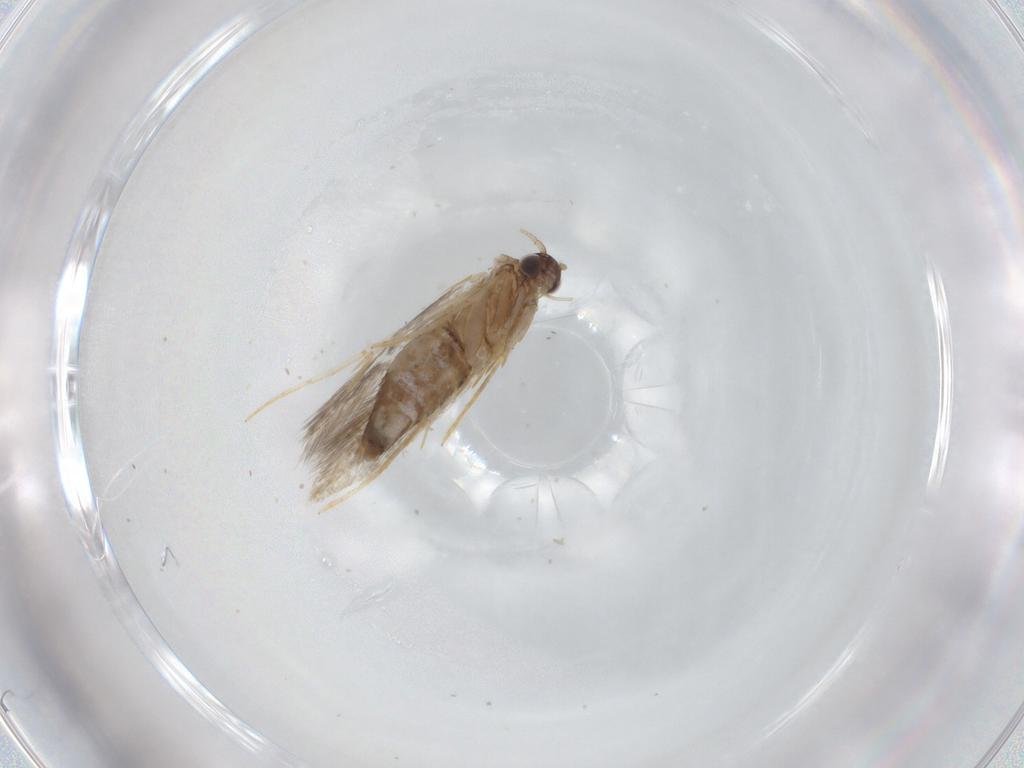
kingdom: Animalia
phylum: Arthropoda
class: Insecta
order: Lepidoptera
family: Tineidae
